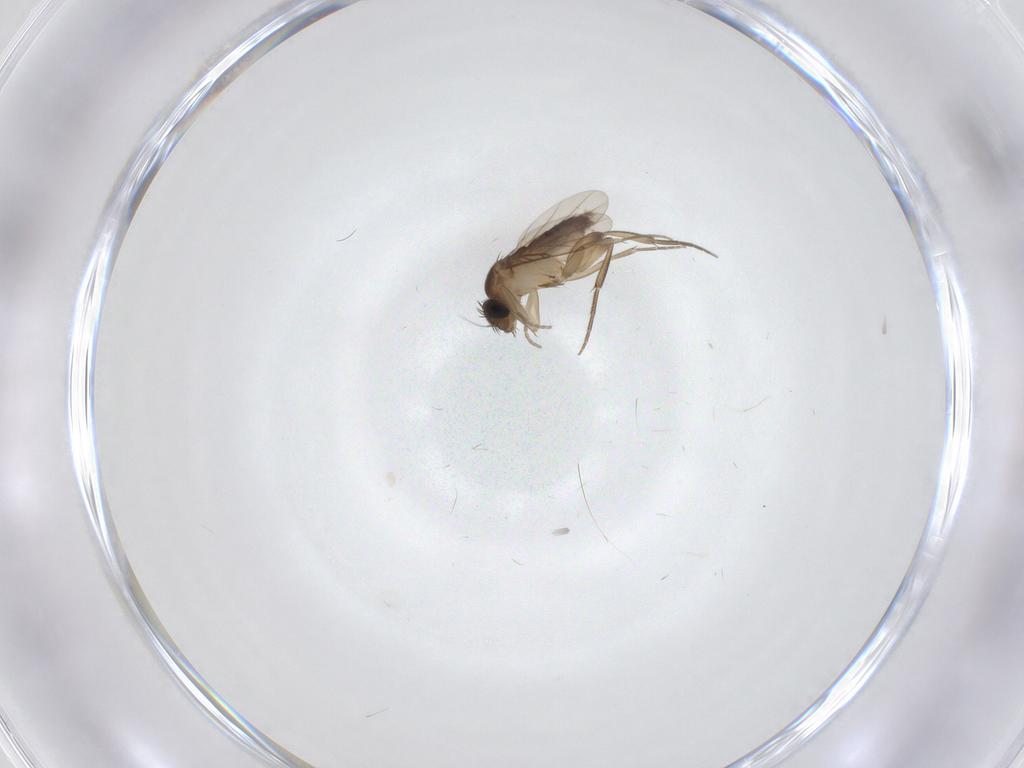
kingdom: Animalia
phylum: Arthropoda
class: Insecta
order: Diptera
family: Phoridae
